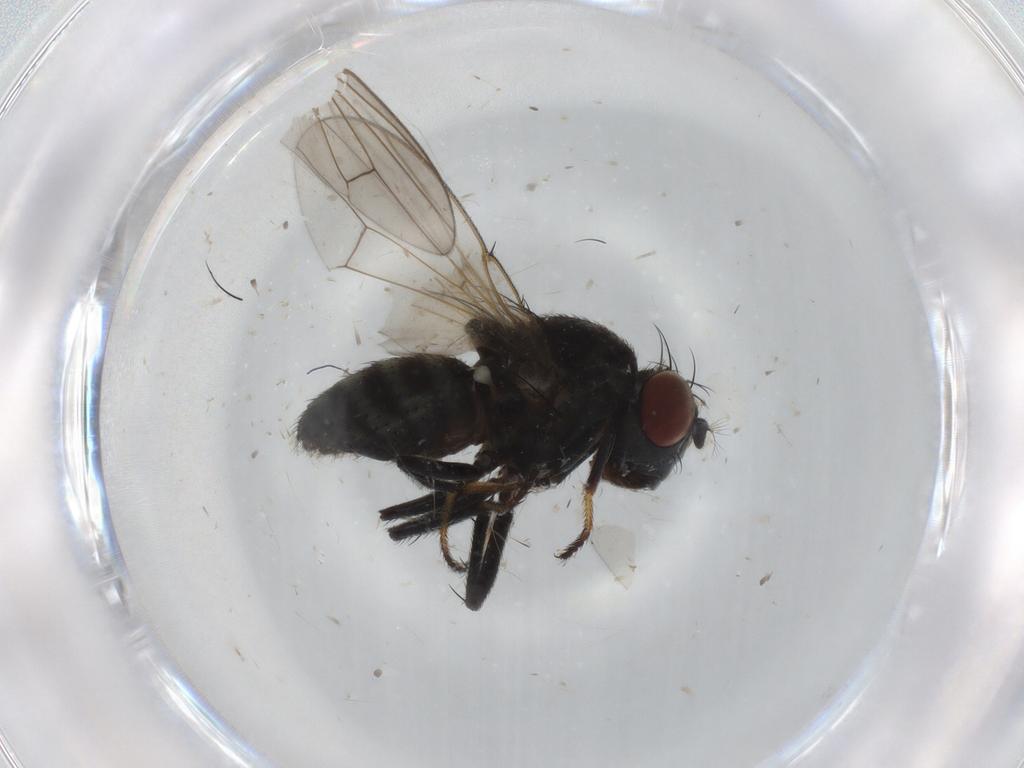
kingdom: Animalia
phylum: Arthropoda
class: Insecta
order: Diptera
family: Ephydridae
